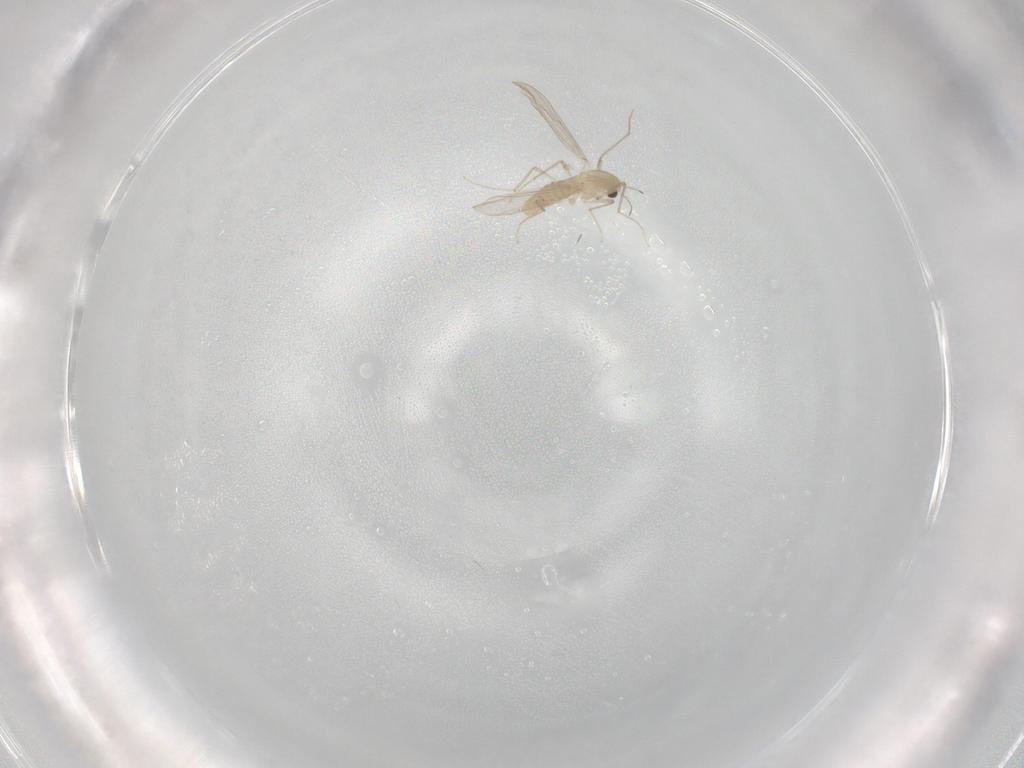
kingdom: Animalia
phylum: Arthropoda
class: Insecta
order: Diptera
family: Chironomidae
